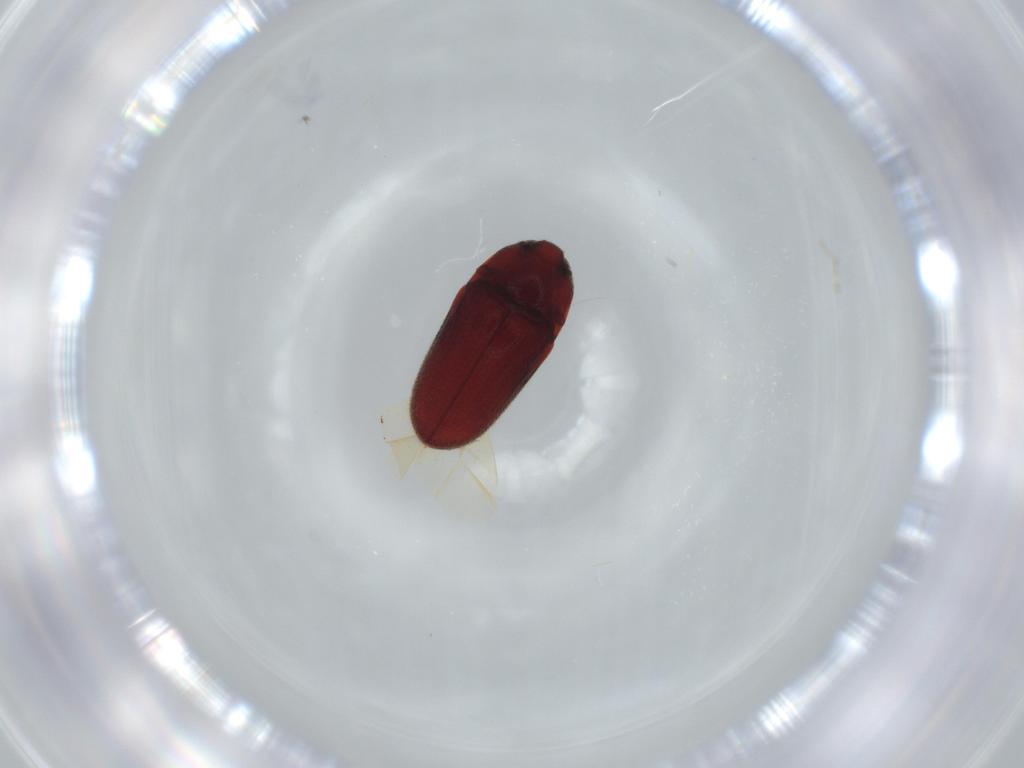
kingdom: Animalia
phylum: Arthropoda
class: Insecta
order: Coleoptera
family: Throscidae
